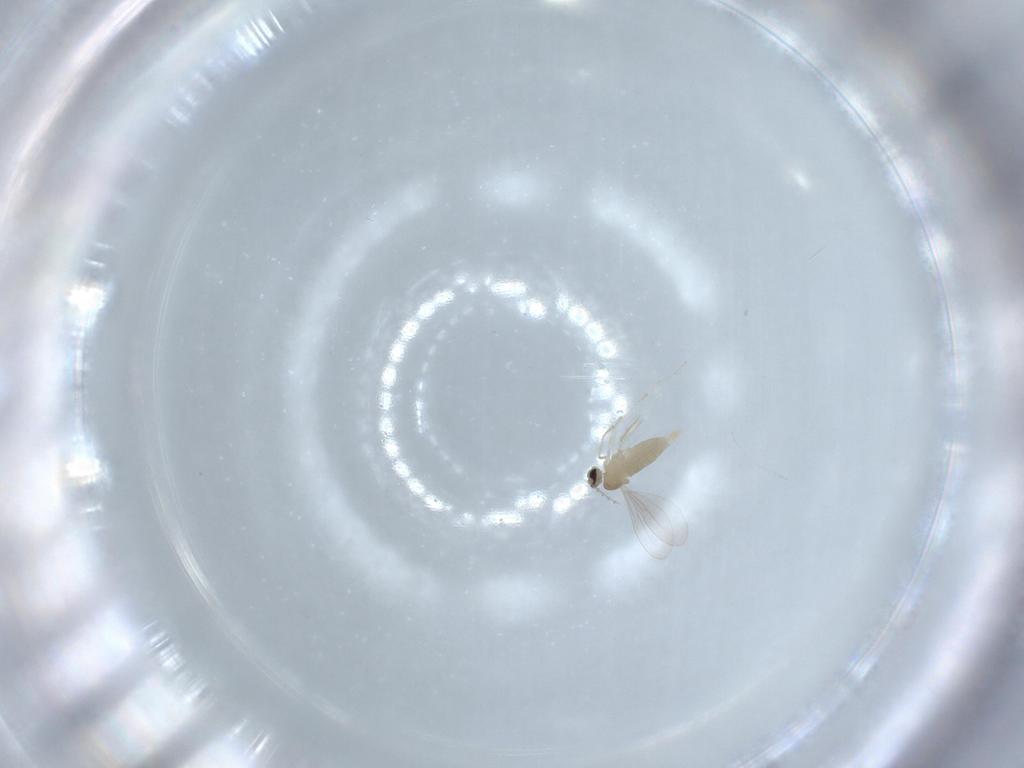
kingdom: Animalia
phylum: Arthropoda
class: Insecta
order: Diptera
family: Cecidomyiidae
